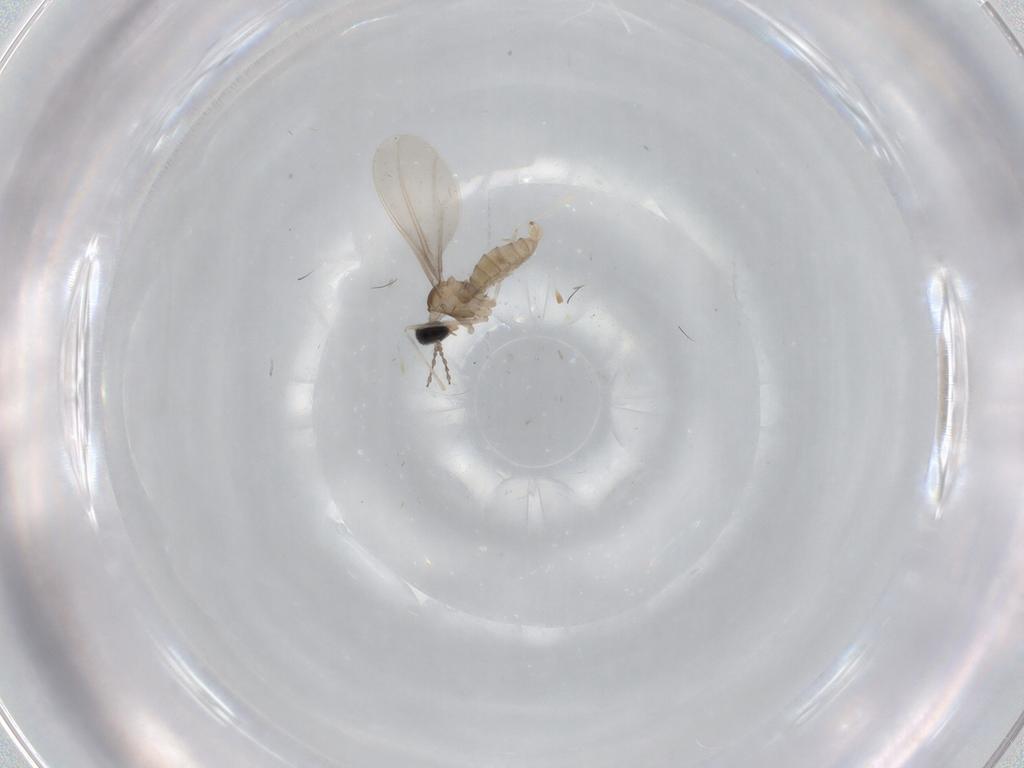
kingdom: Animalia
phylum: Arthropoda
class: Insecta
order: Diptera
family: Cecidomyiidae
